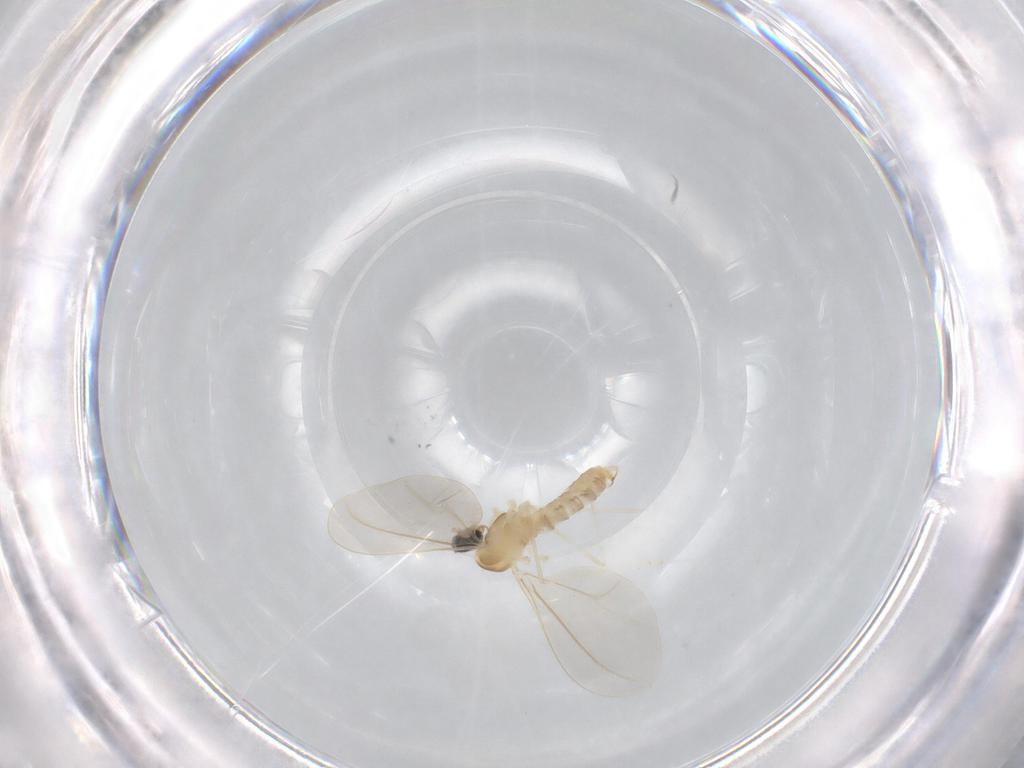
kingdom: Animalia
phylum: Arthropoda
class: Insecta
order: Diptera
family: Cecidomyiidae
